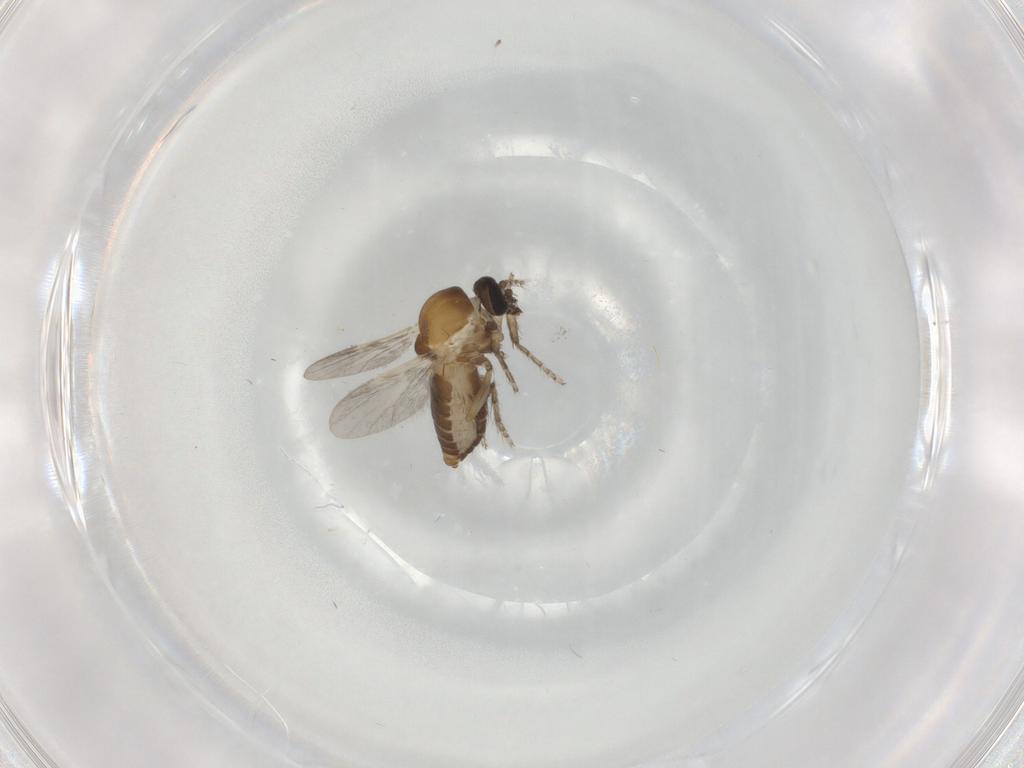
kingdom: Animalia
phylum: Arthropoda
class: Insecta
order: Diptera
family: Ceratopogonidae
